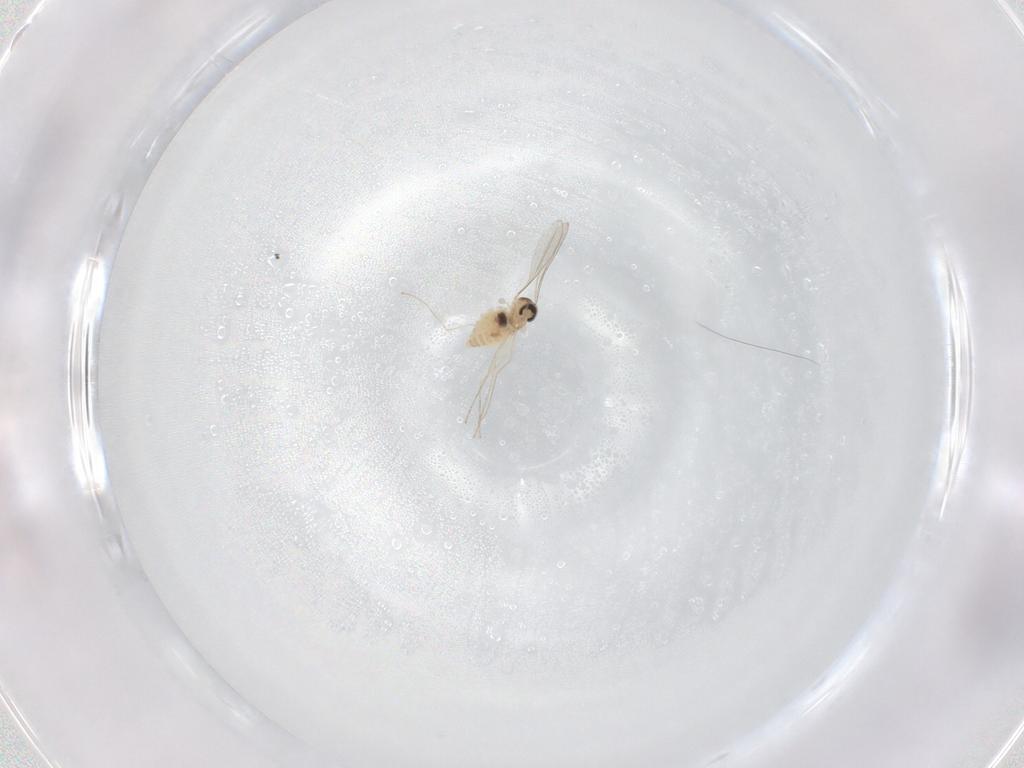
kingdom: Animalia
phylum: Arthropoda
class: Insecta
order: Diptera
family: Cecidomyiidae
